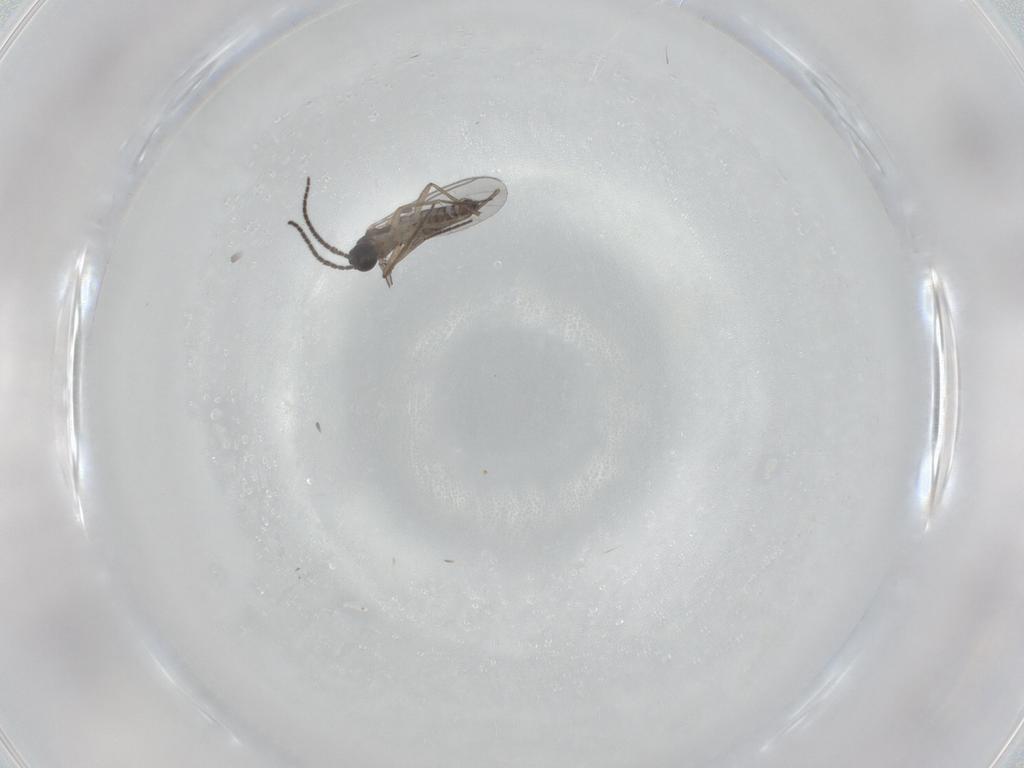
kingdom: Animalia
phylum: Arthropoda
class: Insecta
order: Diptera
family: Sciaridae
